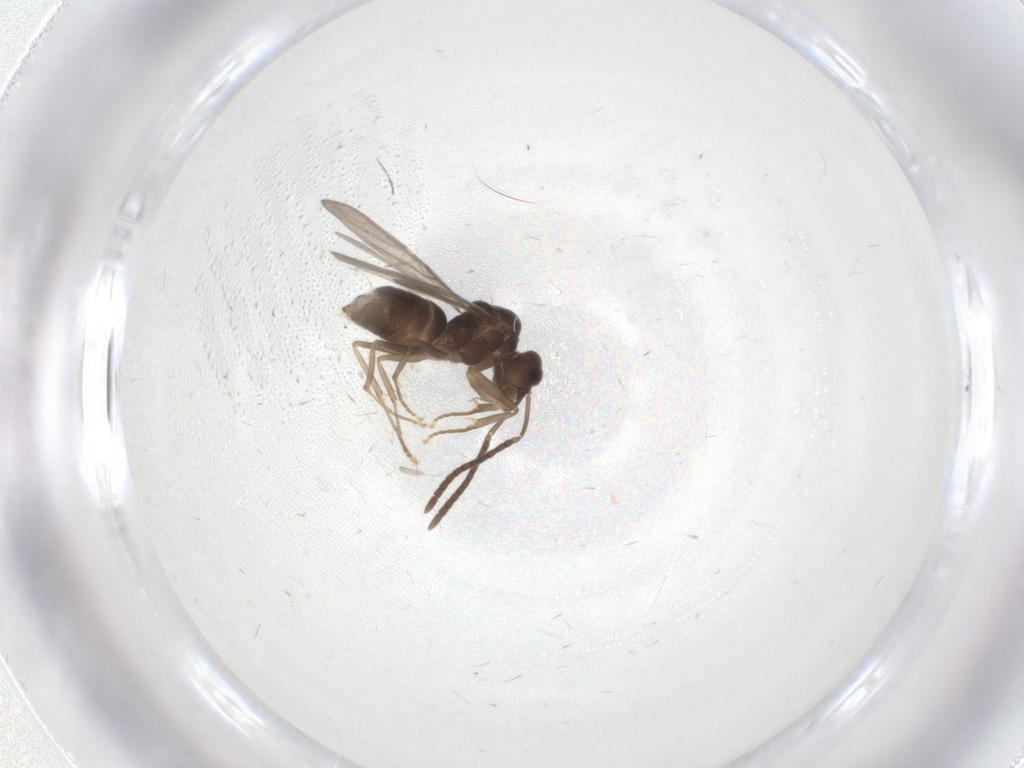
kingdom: Animalia
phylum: Arthropoda
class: Insecta
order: Hymenoptera
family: Formicidae
